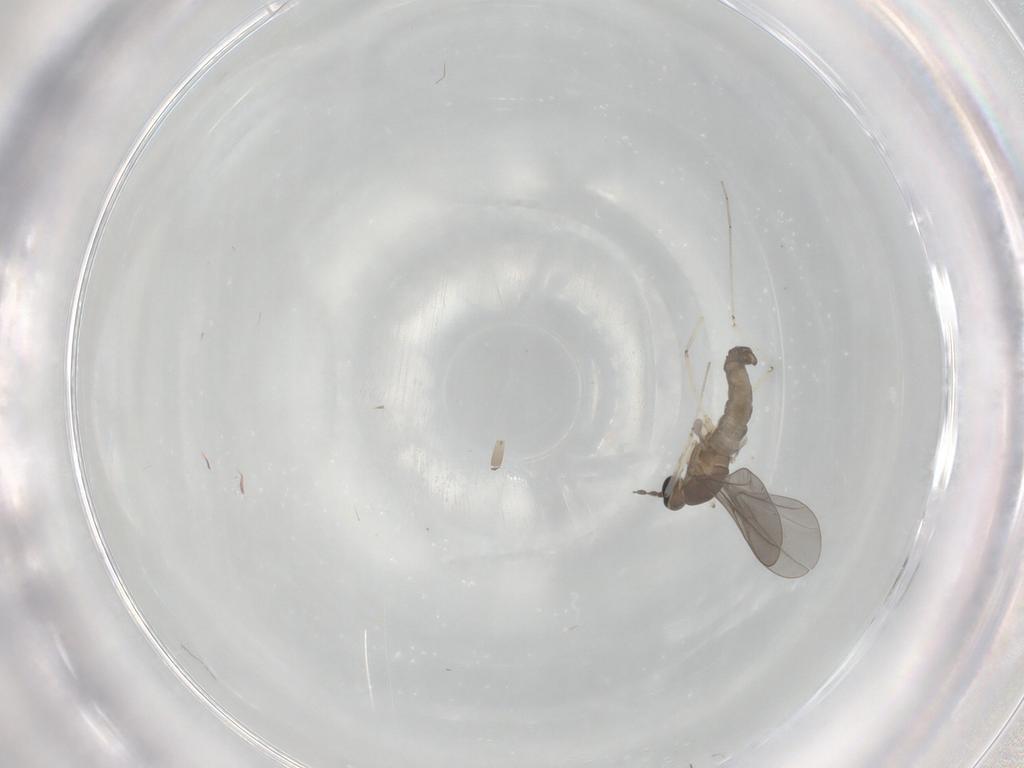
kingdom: Animalia
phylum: Arthropoda
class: Insecta
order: Diptera
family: Cecidomyiidae
